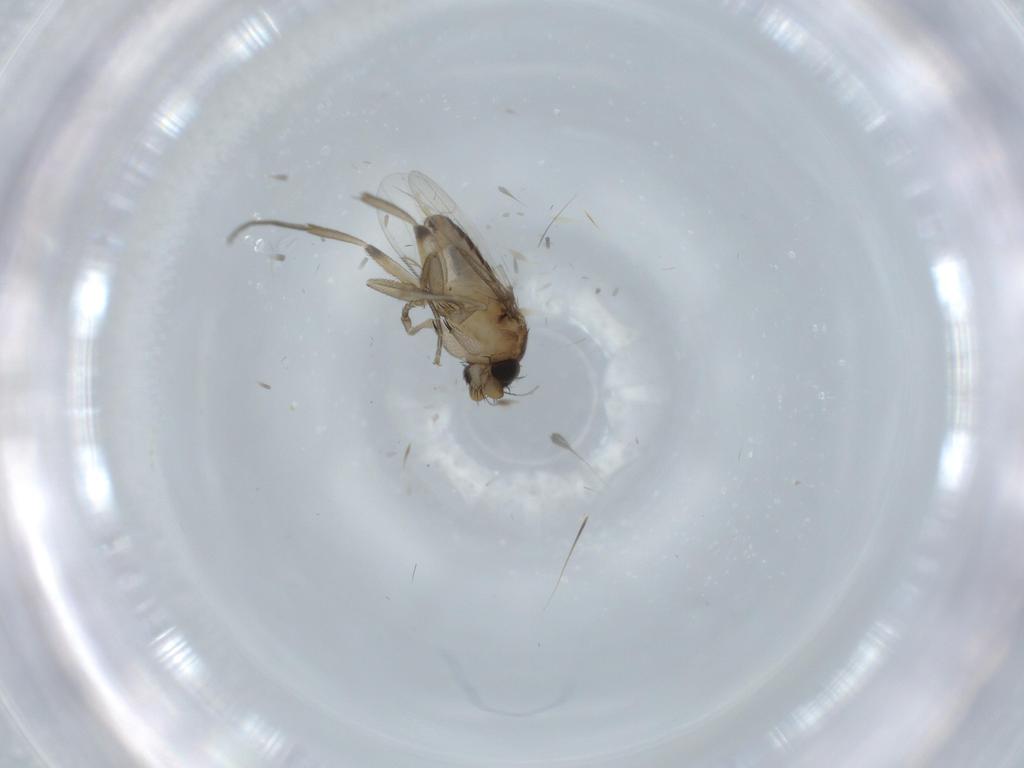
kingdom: Animalia
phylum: Arthropoda
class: Insecta
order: Diptera
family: Phoridae
